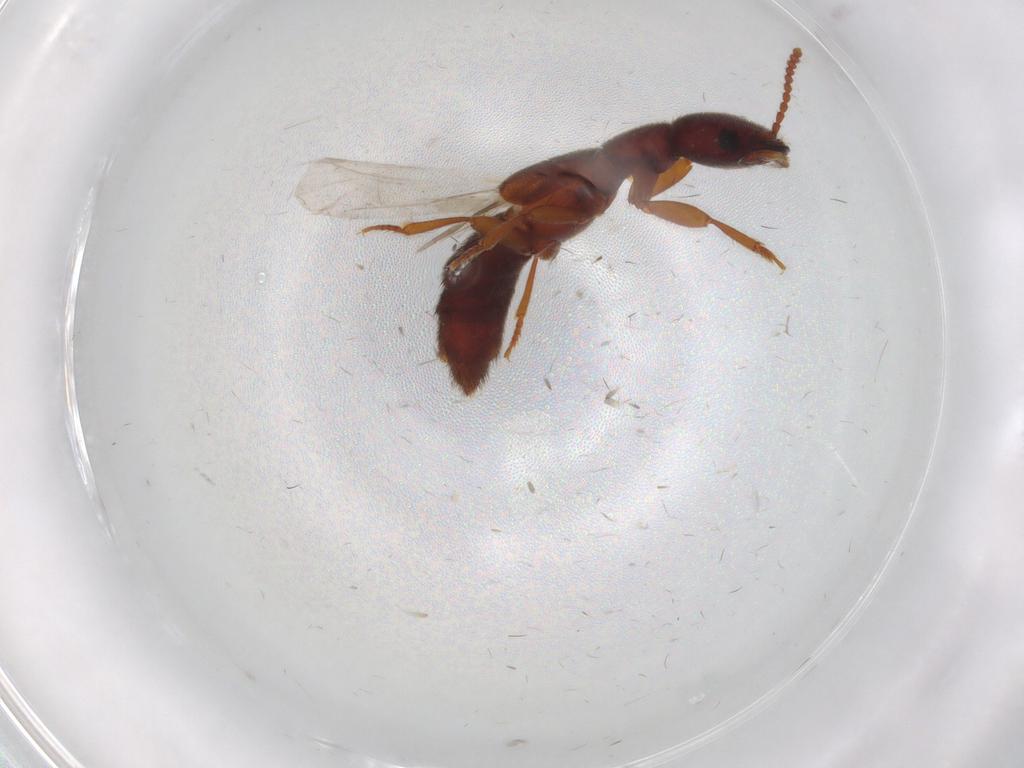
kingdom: Animalia
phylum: Arthropoda
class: Insecta
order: Coleoptera
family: Staphylinidae
